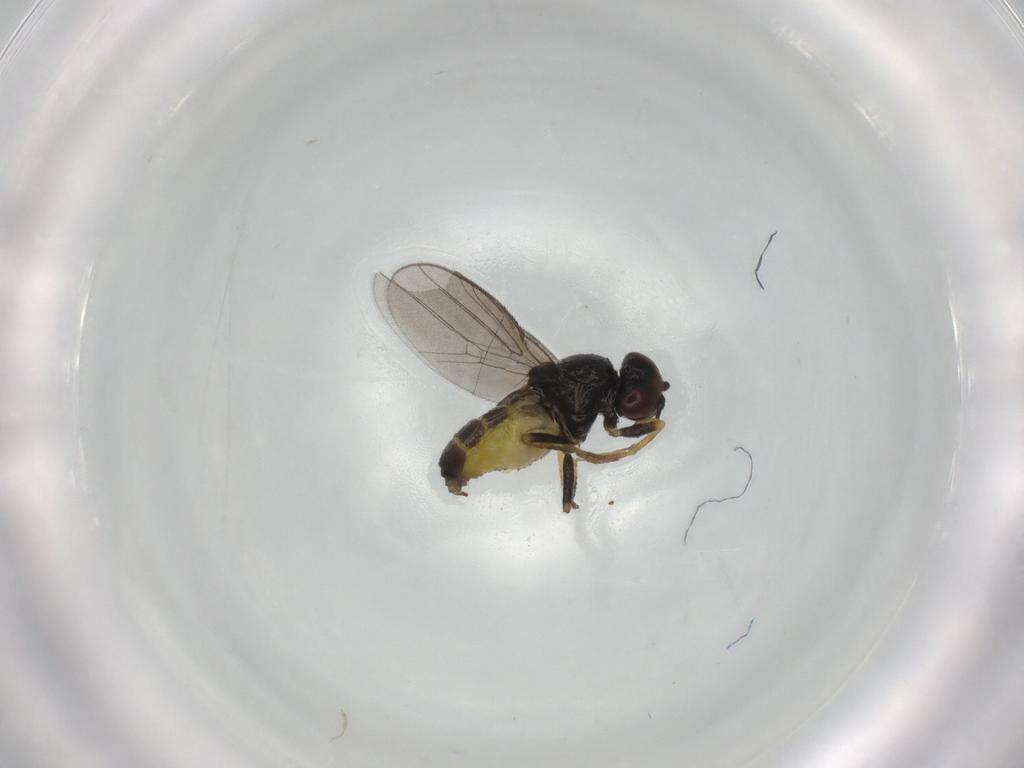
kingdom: Animalia
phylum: Arthropoda
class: Insecta
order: Diptera
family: Chloropidae
